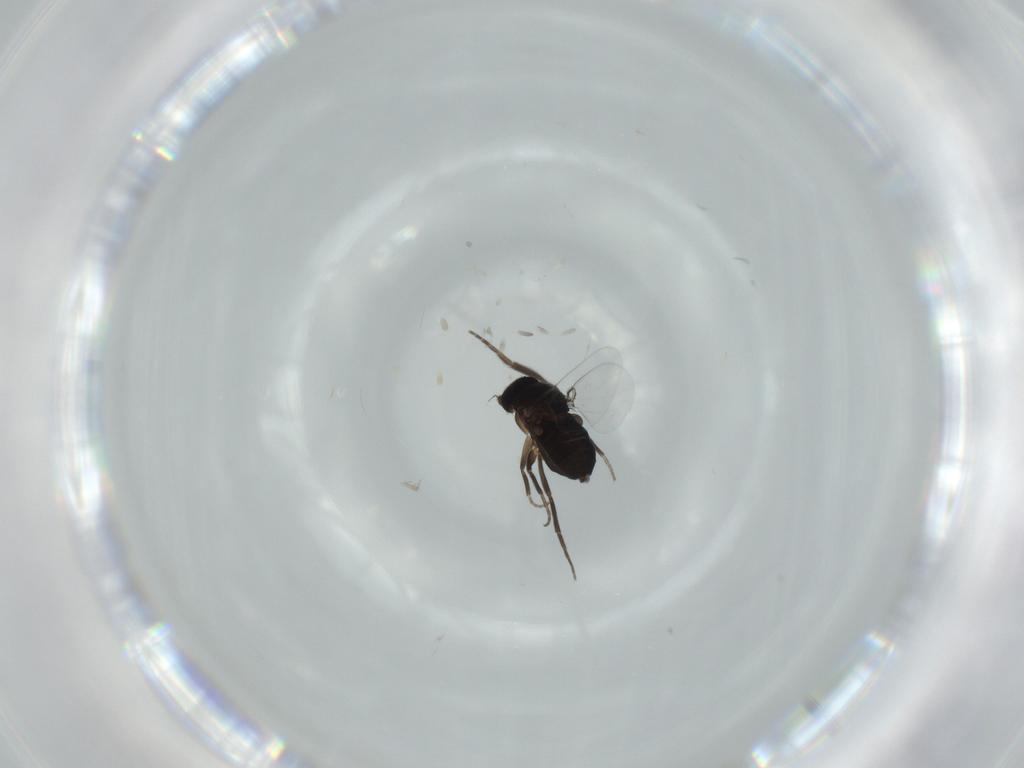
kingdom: Animalia
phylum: Arthropoda
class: Insecta
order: Diptera
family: Phoridae
